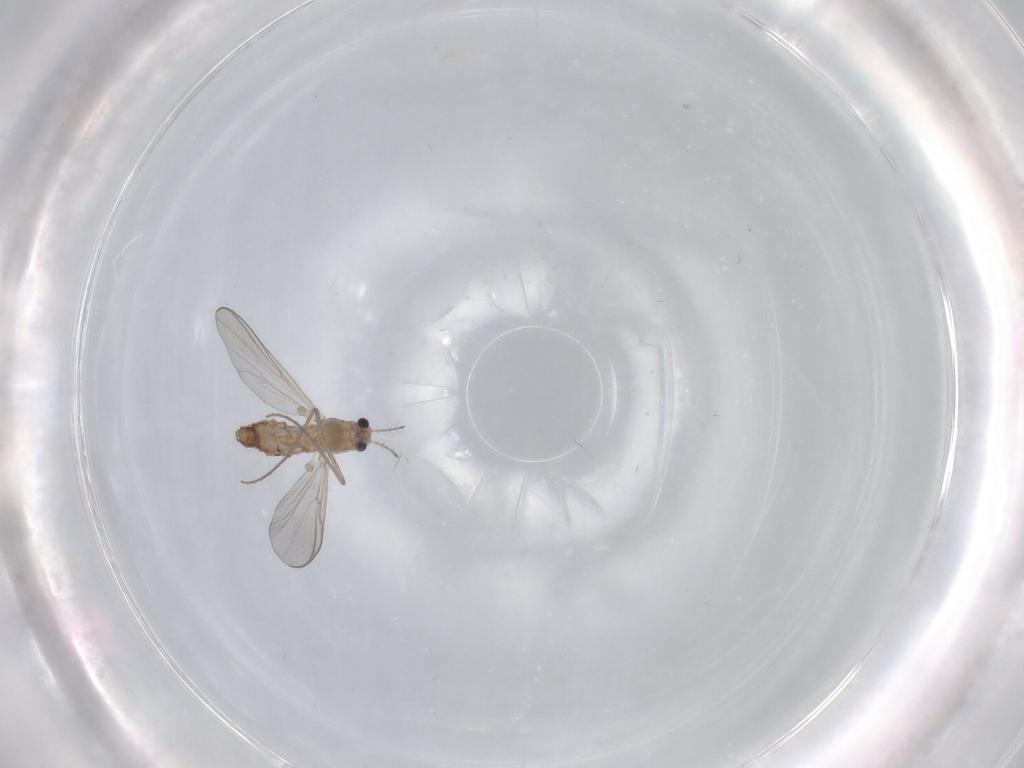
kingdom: Animalia
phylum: Arthropoda
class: Insecta
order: Diptera
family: Chironomidae
